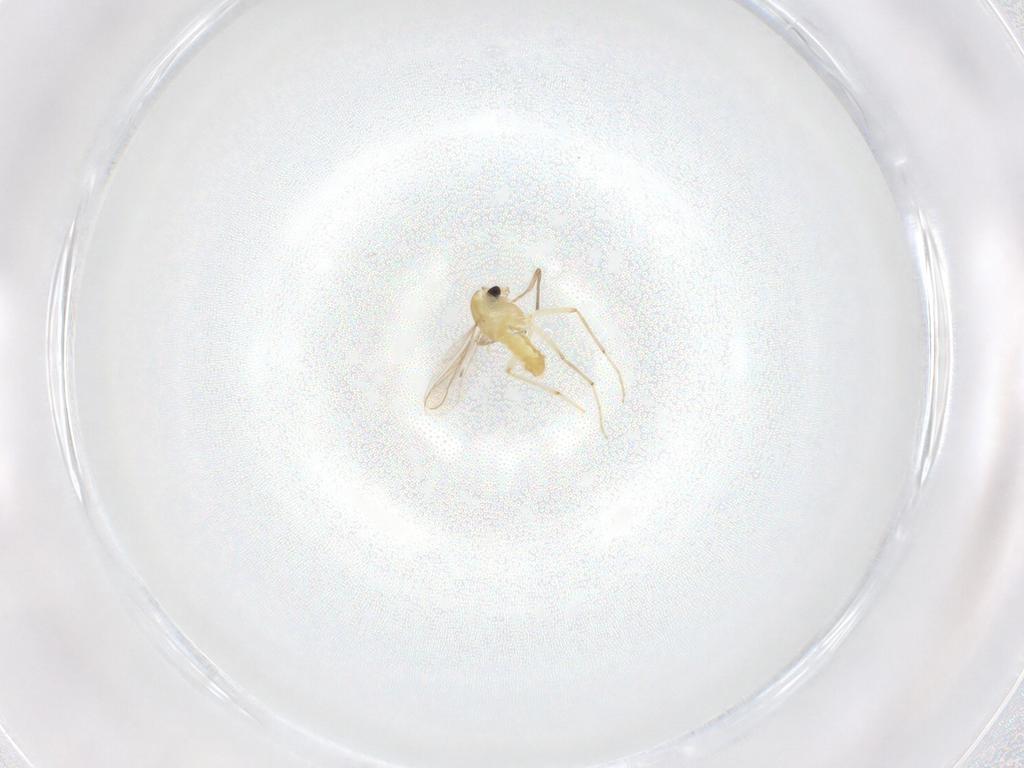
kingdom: Animalia
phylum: Arthropoda
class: Insecta
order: Diptera
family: Chironomidae
